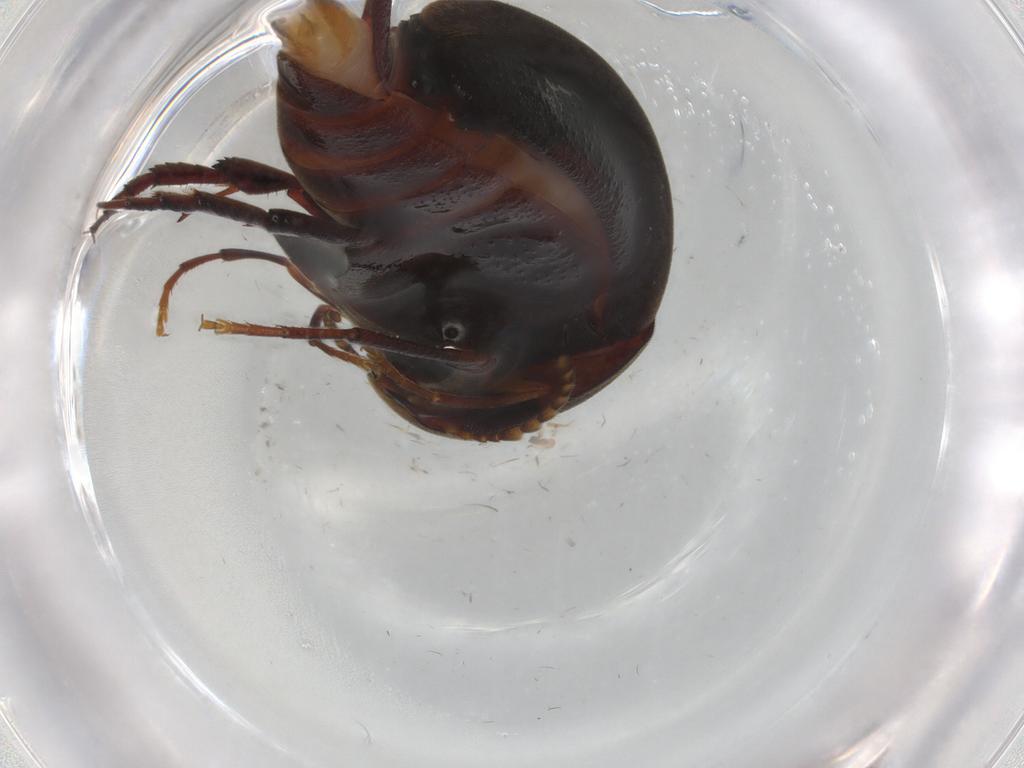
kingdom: Animalia
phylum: Arthropoda
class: Insecta
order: Coleoptera
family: Mordellidae
